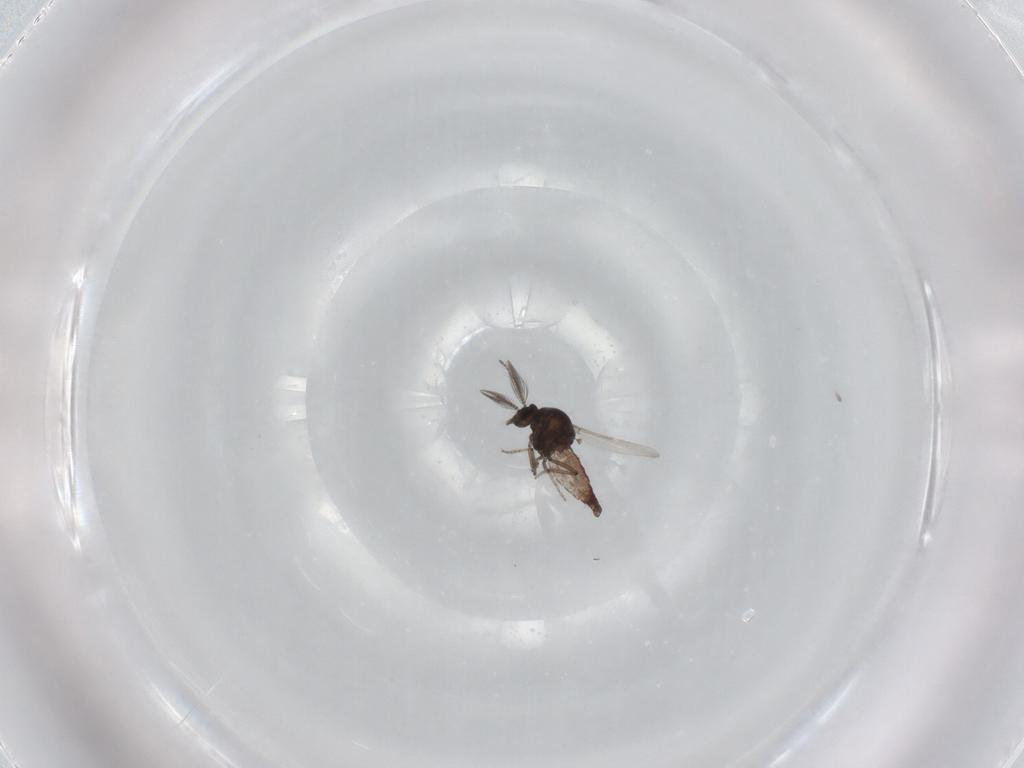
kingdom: Animalia
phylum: Arthropoda
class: Insecta
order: Diptera
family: Ceratopogonidae
